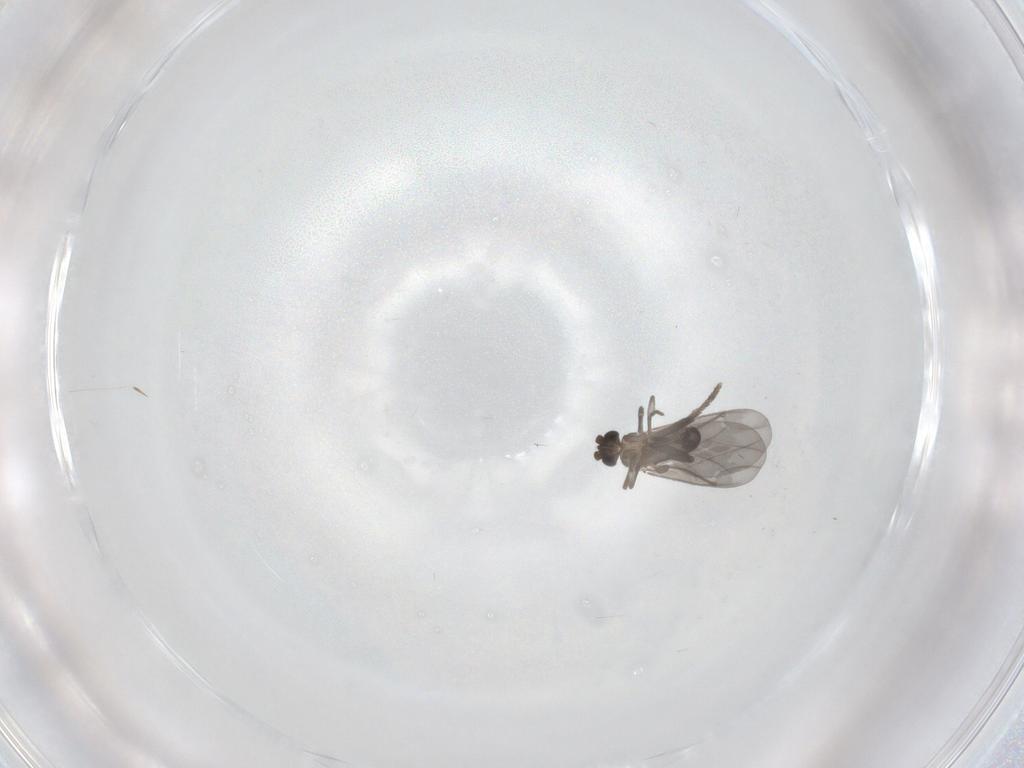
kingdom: Animalia
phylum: Arthropoda
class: Insecta
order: Diptera
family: Phoridae
